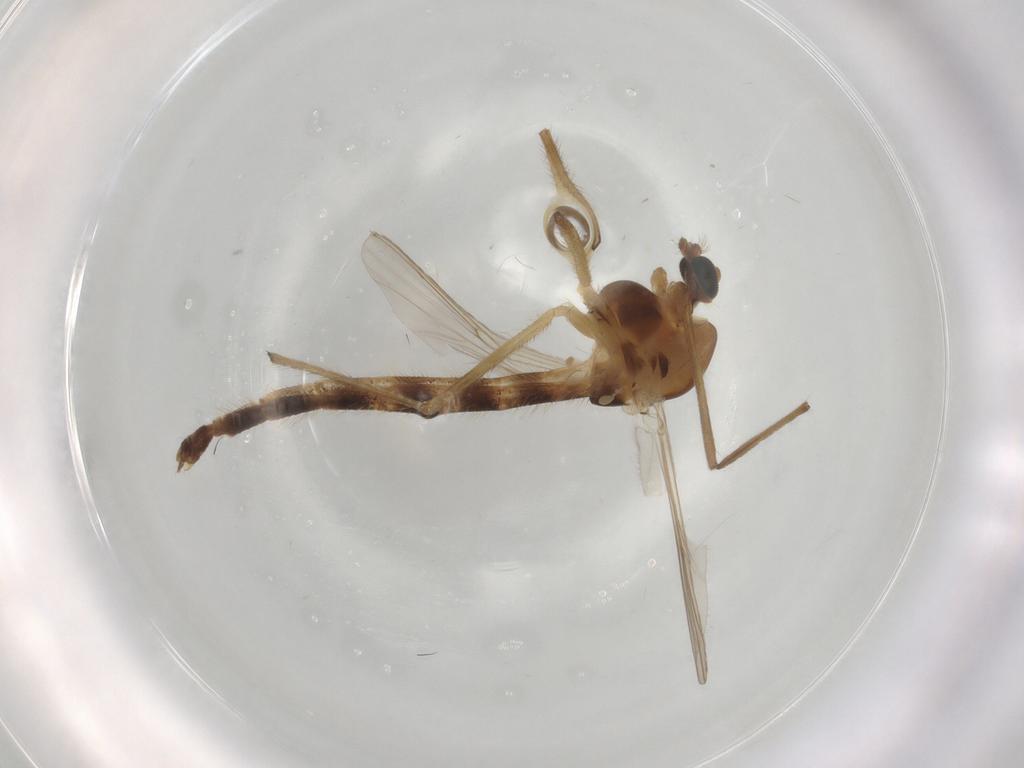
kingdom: Animalia
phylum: Arthropoda
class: Insecta
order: Diptera
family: Chironomidae
